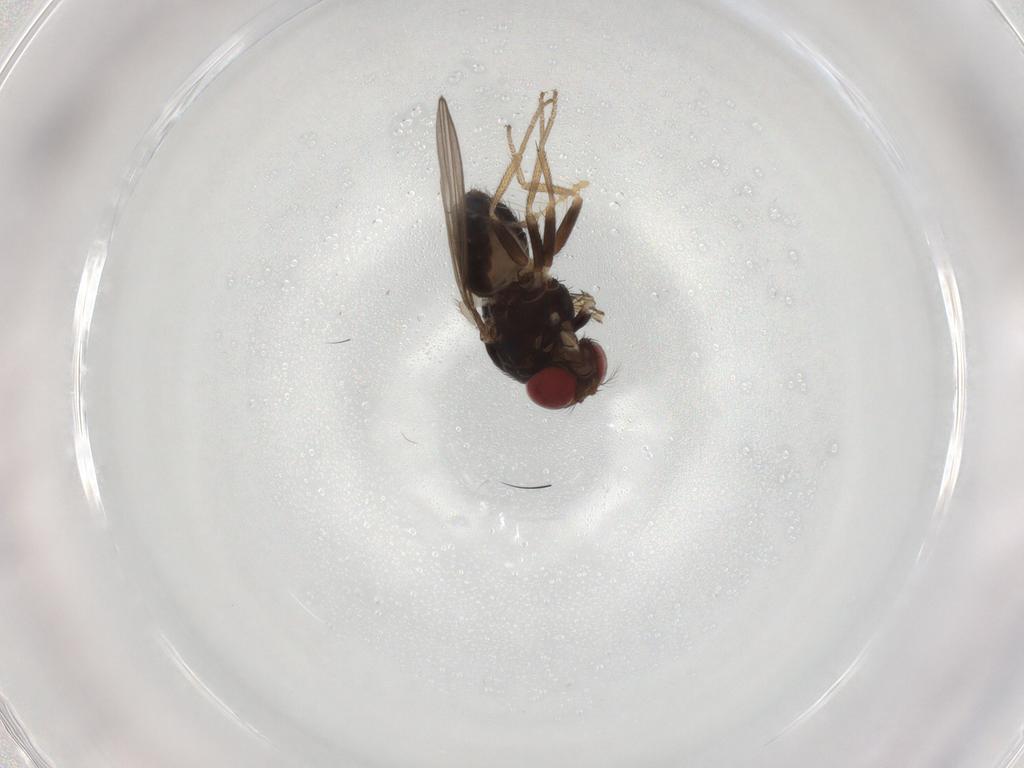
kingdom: Animalia
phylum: Arthropoda
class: Insecta
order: Diptera
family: Drosophilidae
